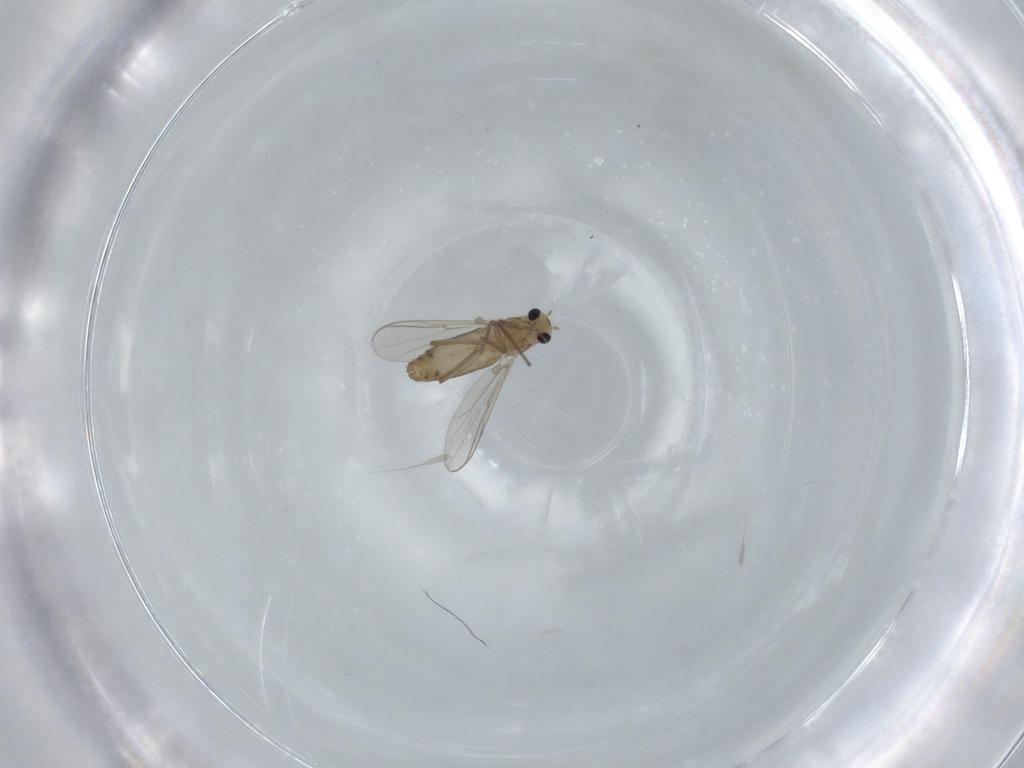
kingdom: Animalia
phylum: Arthropoda
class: Insecta
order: Diptera
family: Chironomidae
